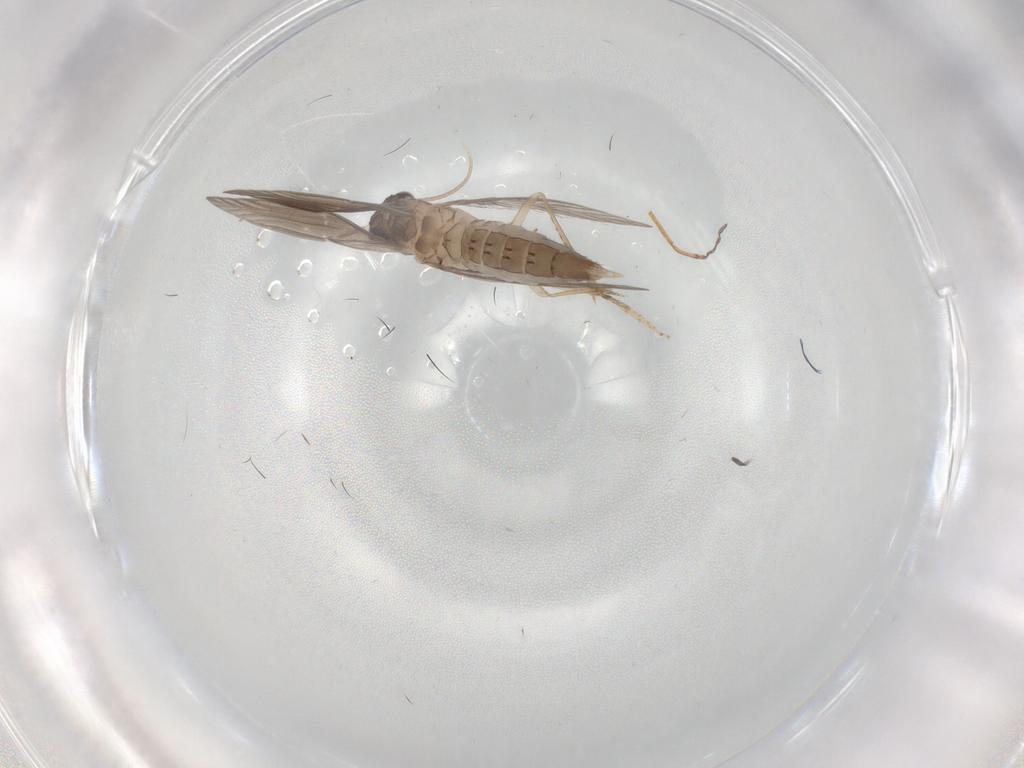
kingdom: Animalia
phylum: Arthropoda
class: Insecta
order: Trichoptera
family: Hydroptilidae
